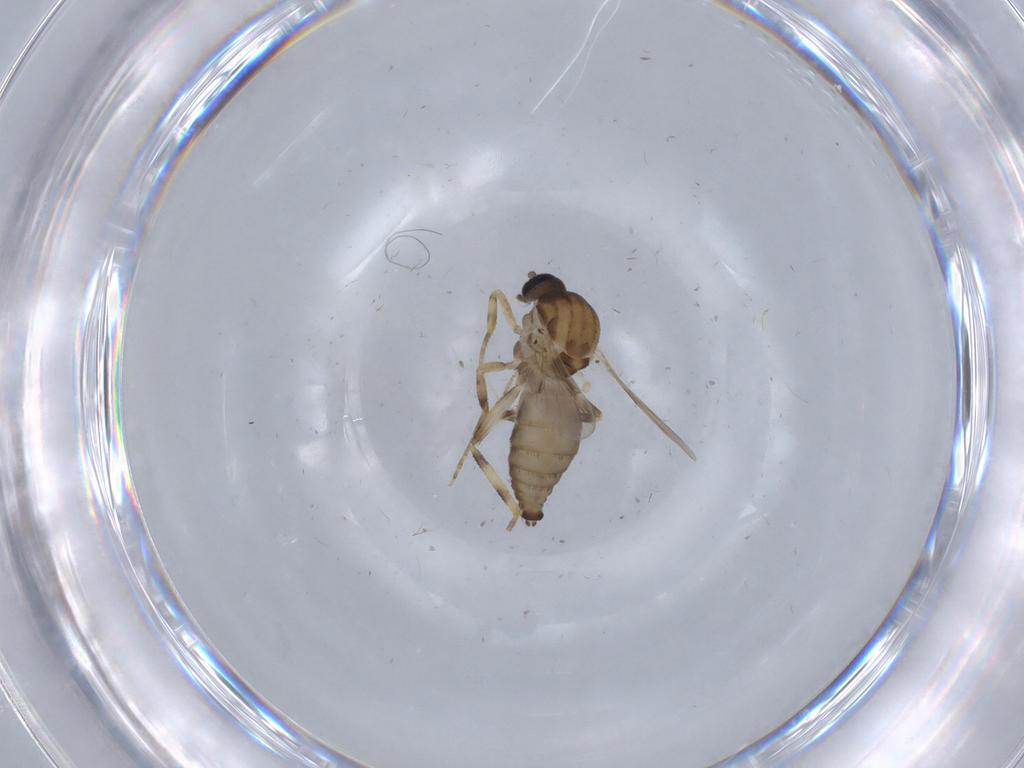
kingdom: Animalia
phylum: Arthropoda
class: Insecta
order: Diptera
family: Ceratopogonidae
